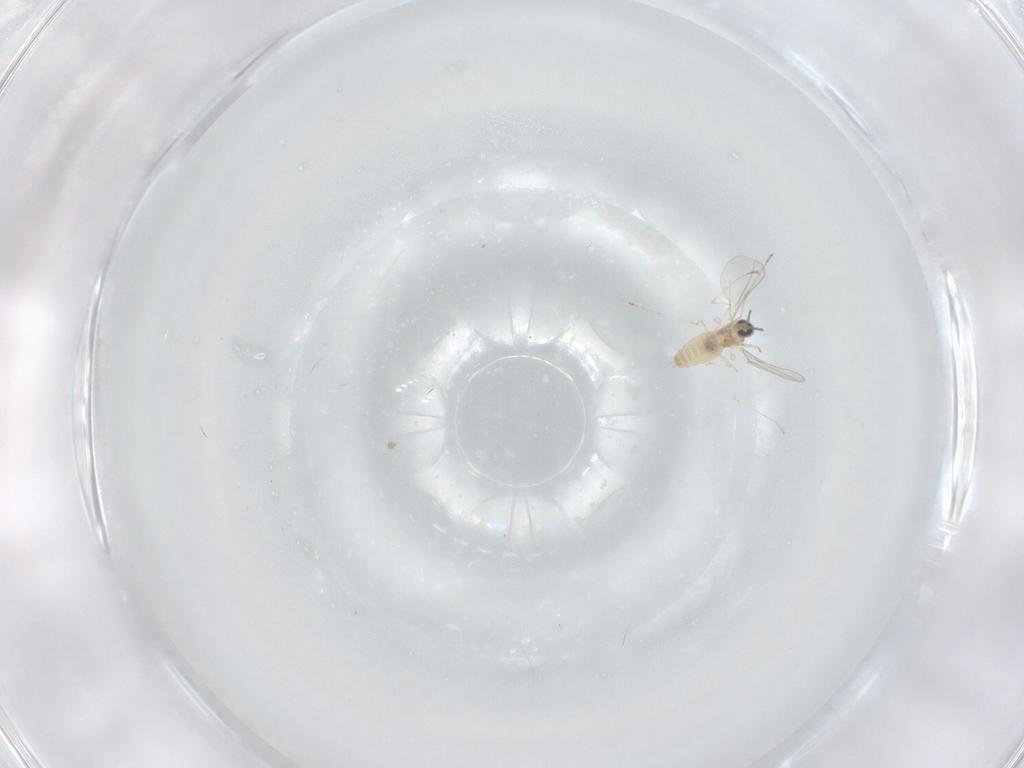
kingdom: Animalia
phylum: Arthropoda
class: Insecta
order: Diptera
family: Cecidomyiidae
